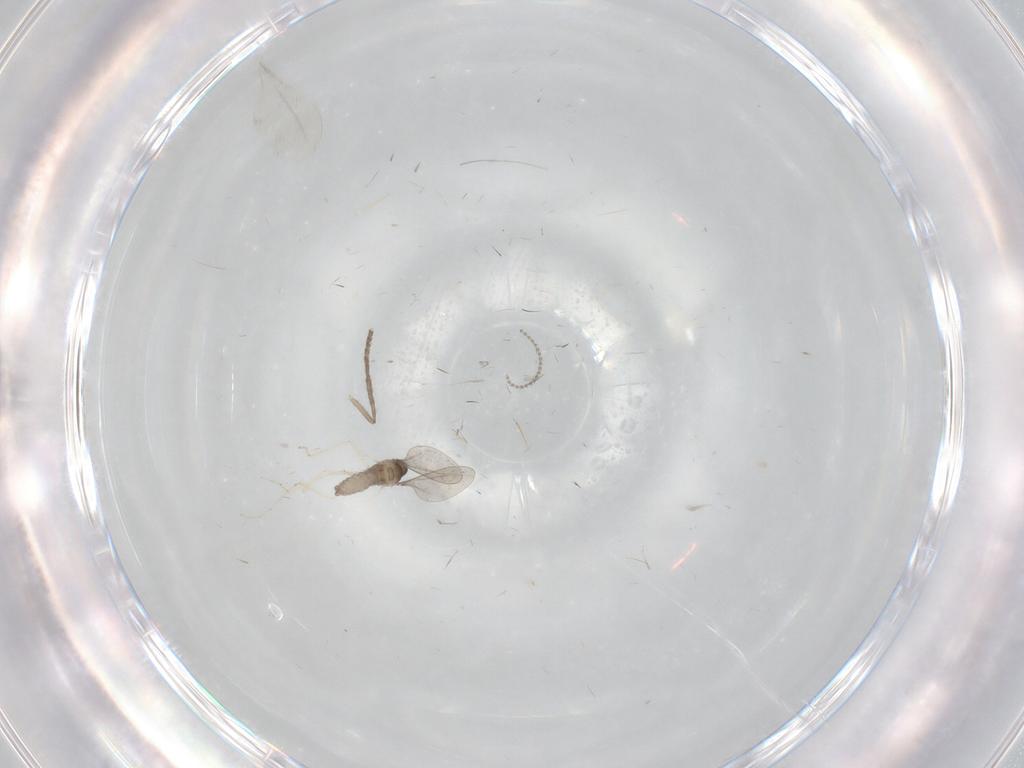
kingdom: Animalia
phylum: Arthropoda
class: Insecta
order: Diptera
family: Psychodidae
